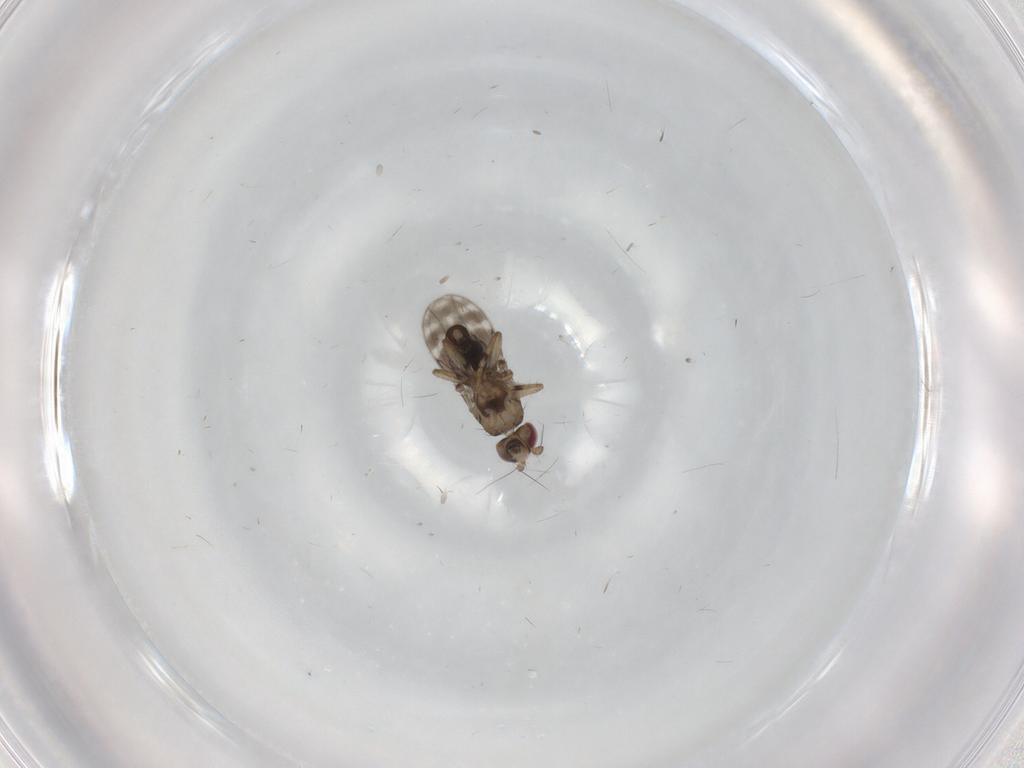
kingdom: Animalia
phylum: Arthropoda
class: Insecta
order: Diptera
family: Sphaeroceridae
